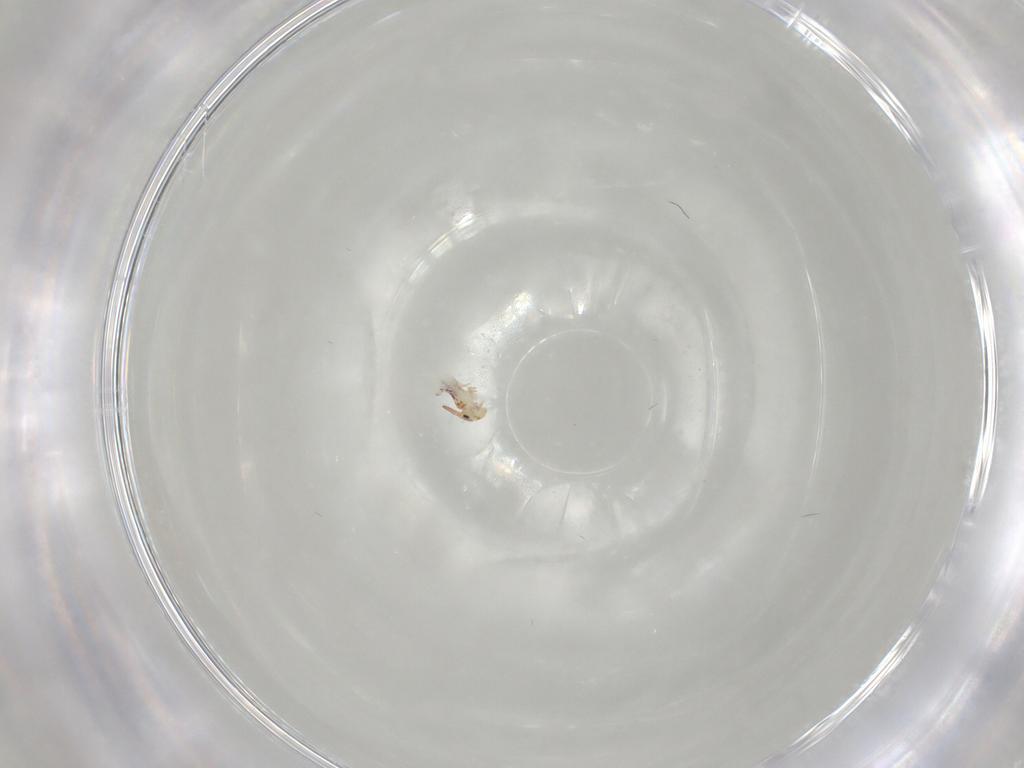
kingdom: Animalia
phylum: Arthropoda
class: Collembola
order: Symphypleona
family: Bourletiellidae
